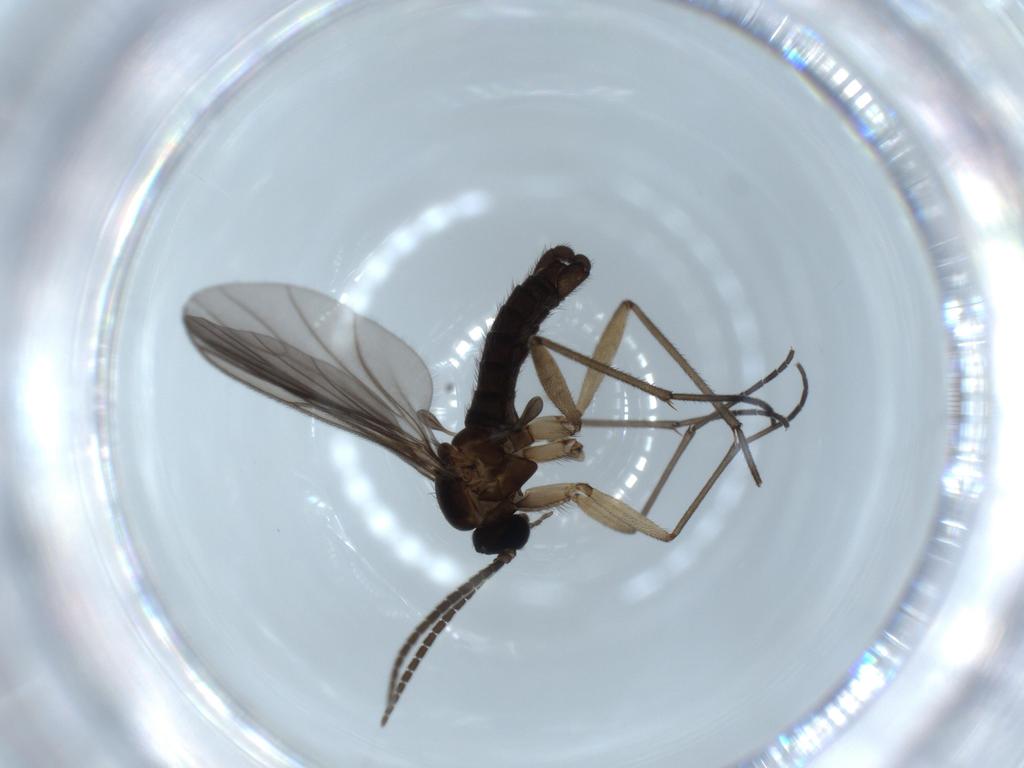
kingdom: Animalia
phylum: Arthropoda
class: Insecta
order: Diptera
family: Sciaridae
